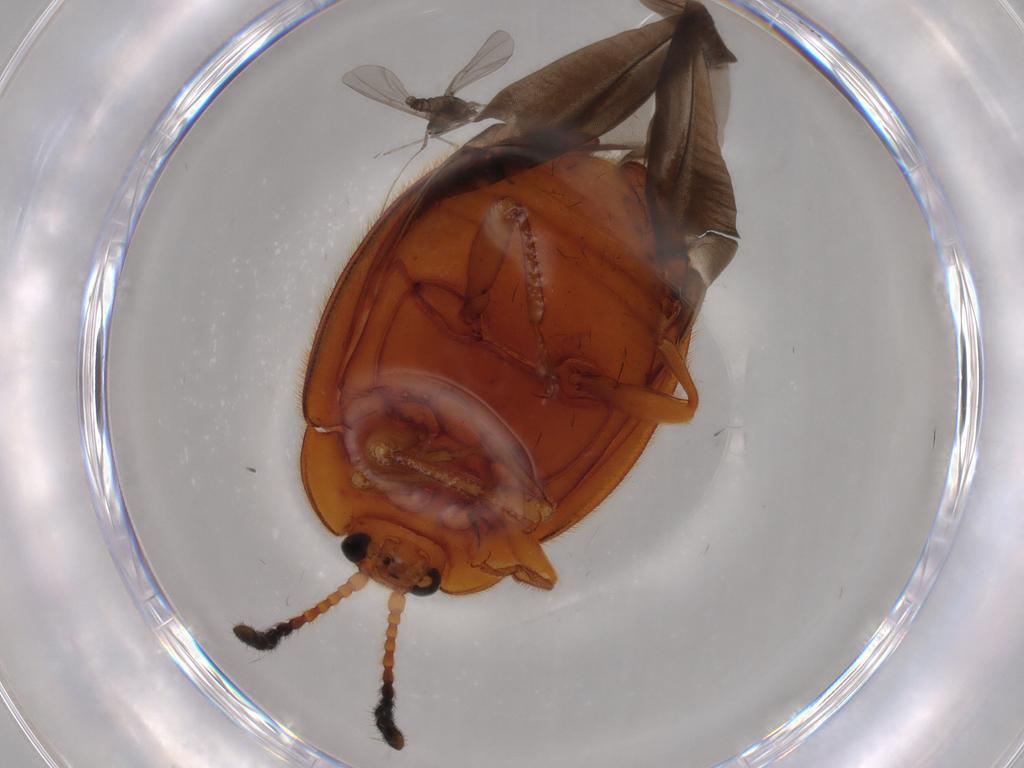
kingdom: Animalia
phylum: Arthropoda
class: Insecta
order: Coleoptera
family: Endomychidae
